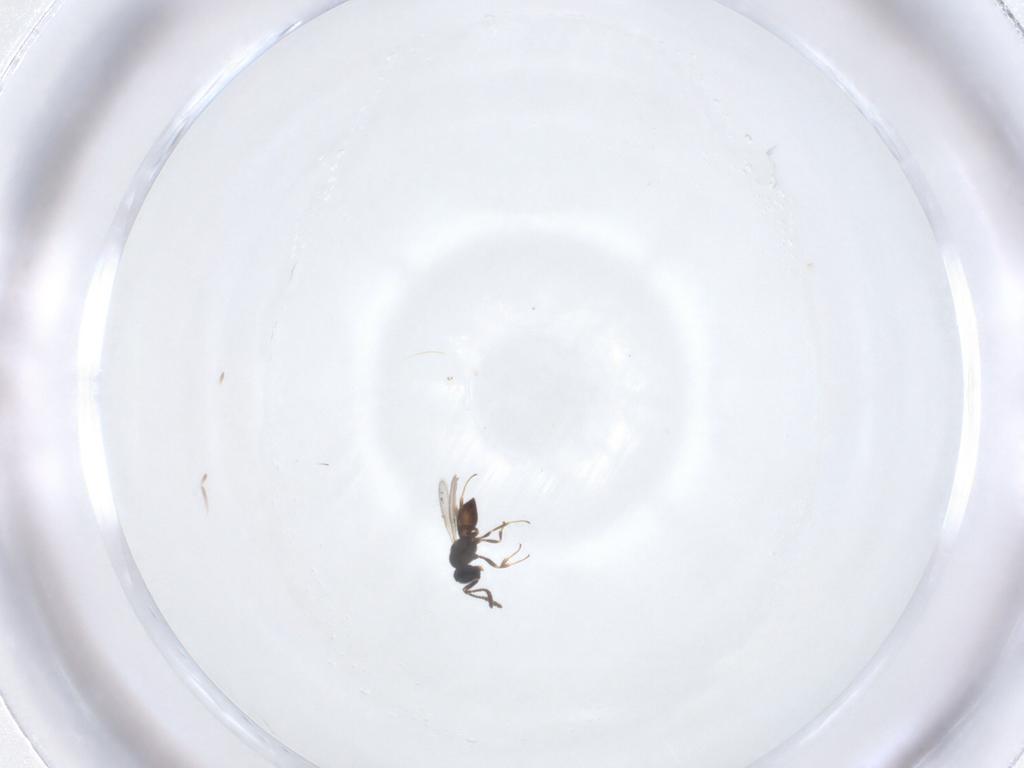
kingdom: Animalia
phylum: Arthropoda
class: Insecta
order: Hymenoptera
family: Scelionidae
